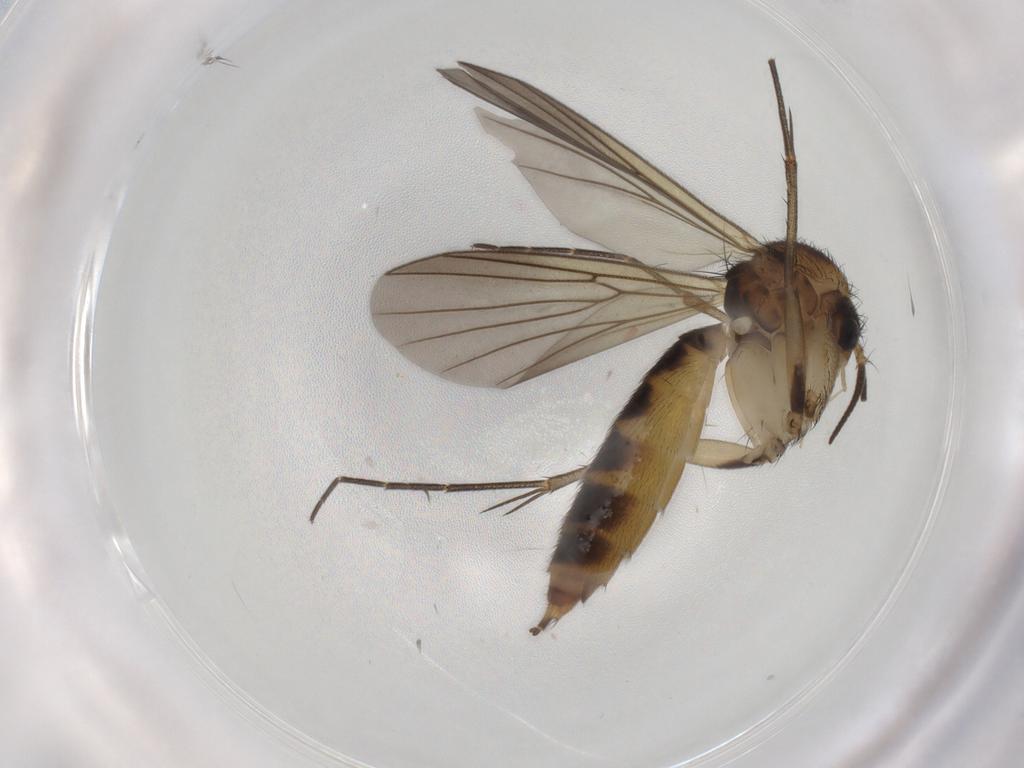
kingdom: Animalia
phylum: Arthropoda
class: Insecta
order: Diptera
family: Mycetophilidae
